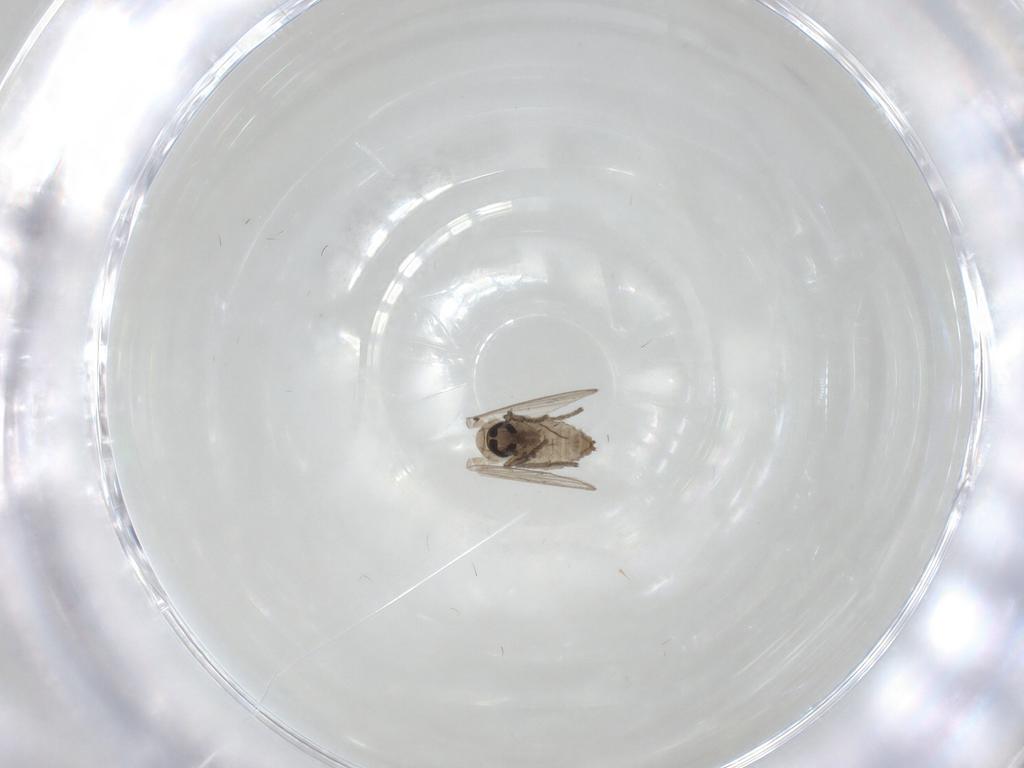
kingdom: Animalia
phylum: Arthropoda
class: Insecta
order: Diptera
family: Psychodidae
